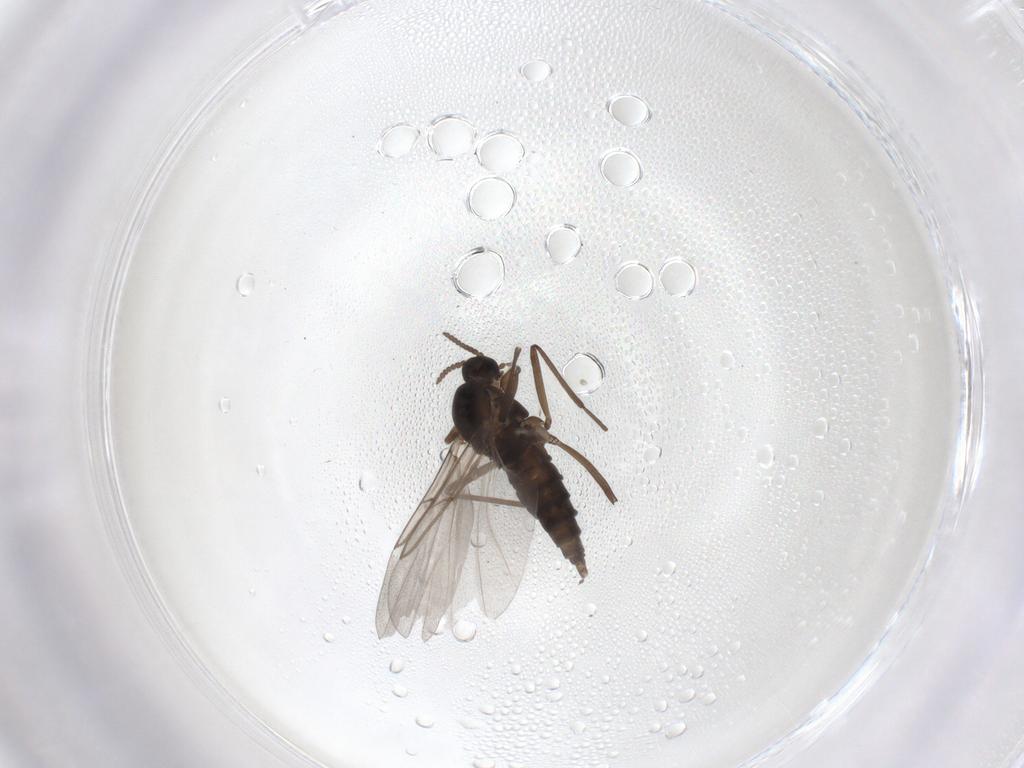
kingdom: Animalia
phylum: Arthropoda
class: Insecta
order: Diptera
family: Cecidomyiidae
